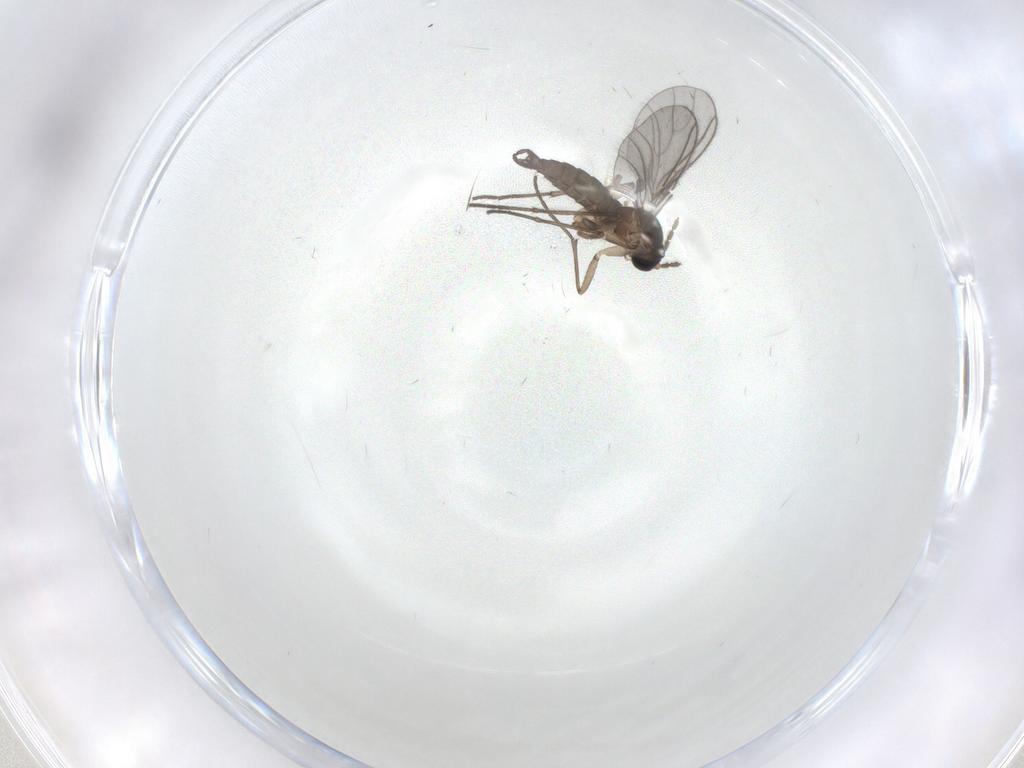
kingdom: Animalia
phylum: Arthropoda
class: Insecta
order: Diptera
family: Sciaridae
